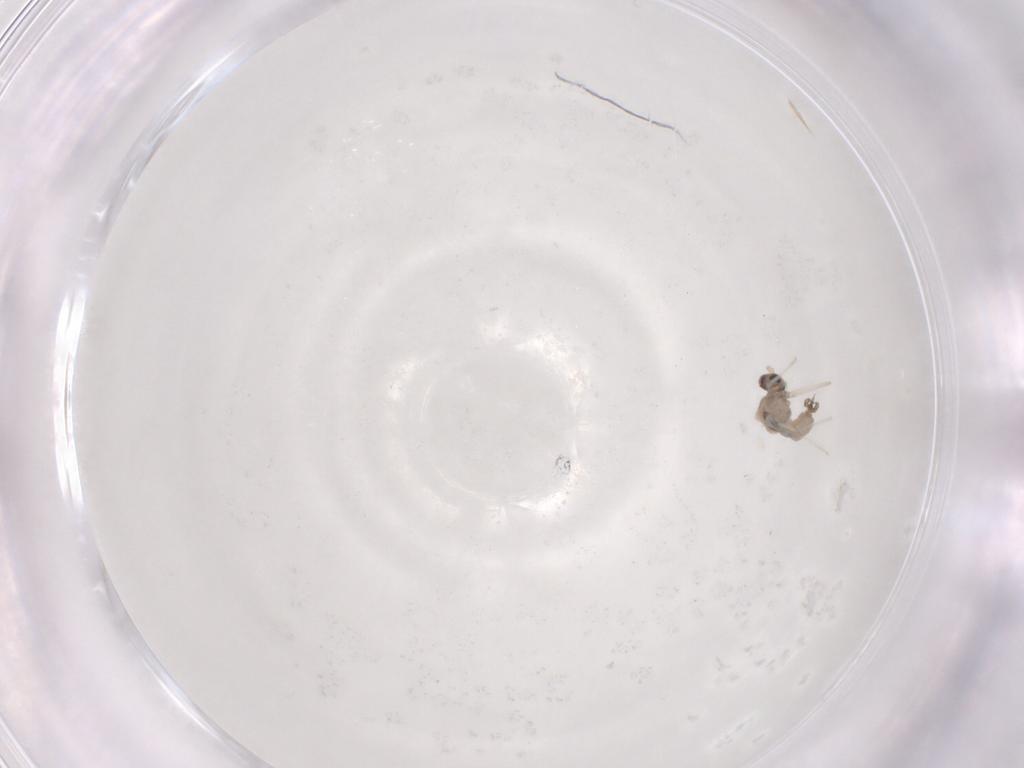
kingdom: Animalia
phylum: Arthropoda
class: Insecta
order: Diptera
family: Cecidomyiidae
